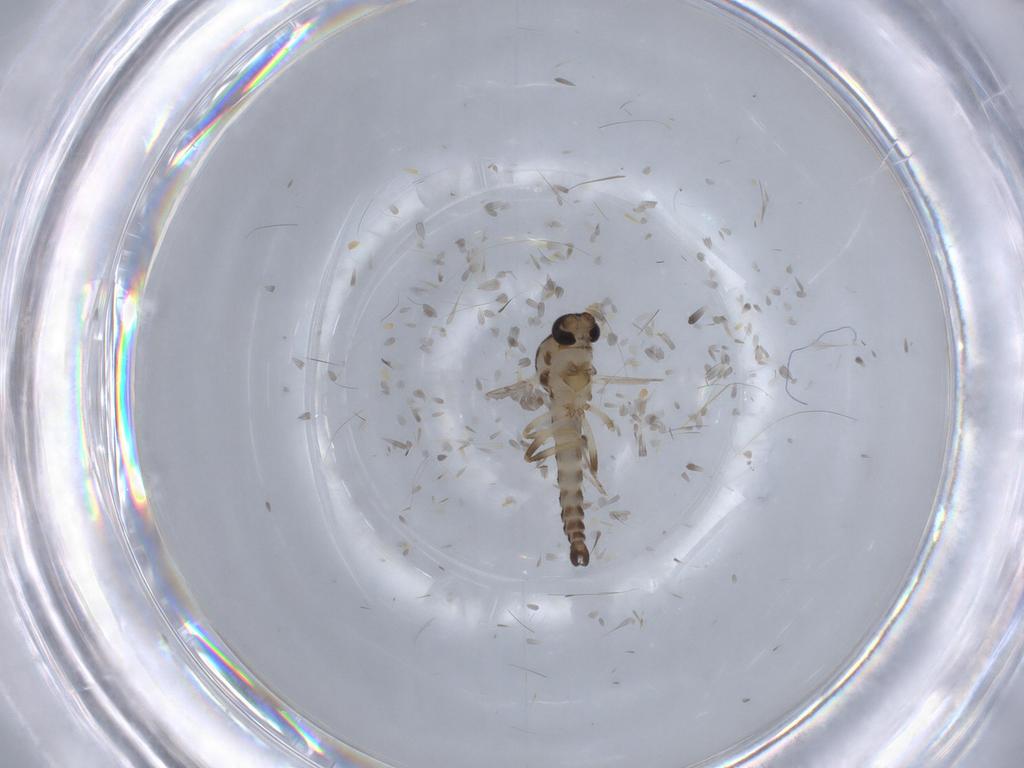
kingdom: Animalia
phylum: Arthropoda
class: Insecta
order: Diptera
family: Ceratopogonidae
